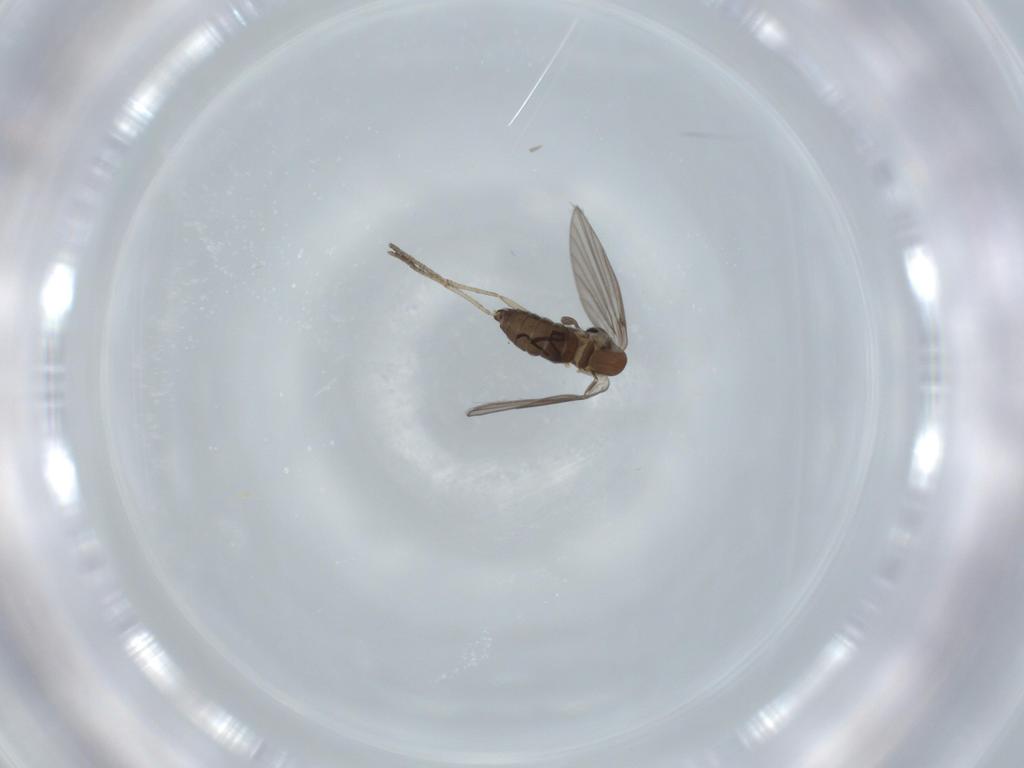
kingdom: Animalia
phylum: Arthropoda
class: Insecta
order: Diptera
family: Psychodidae
